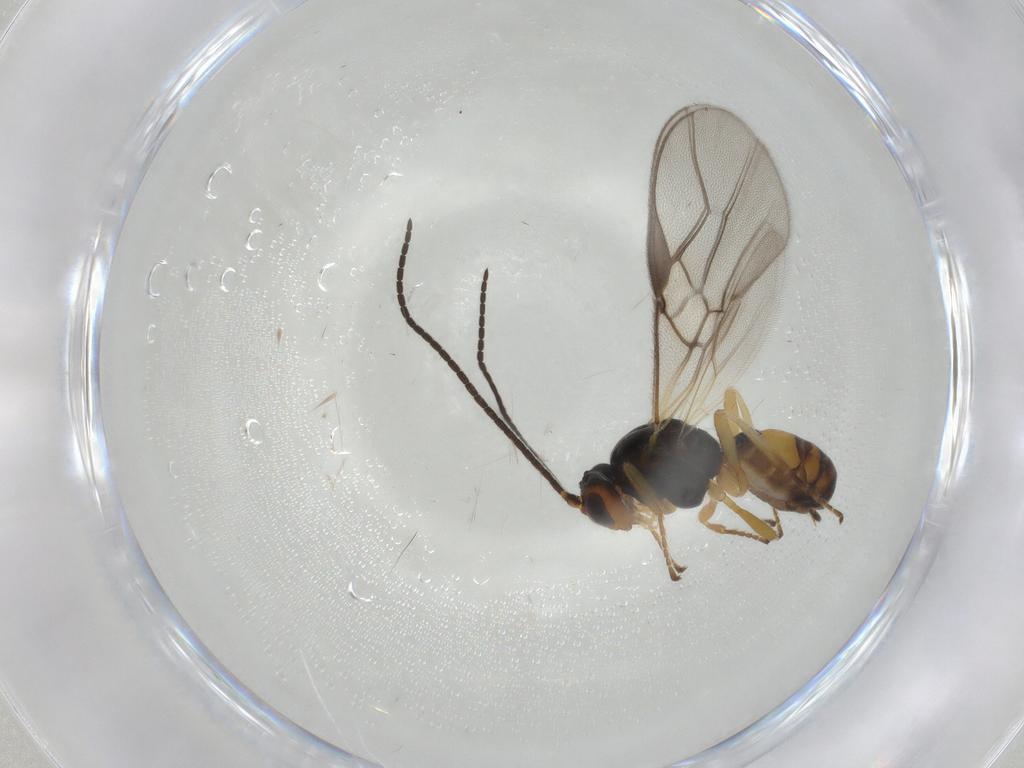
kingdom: Animalia
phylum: Arthropoda
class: Insecta
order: Hymenoptera
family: Braconidae
